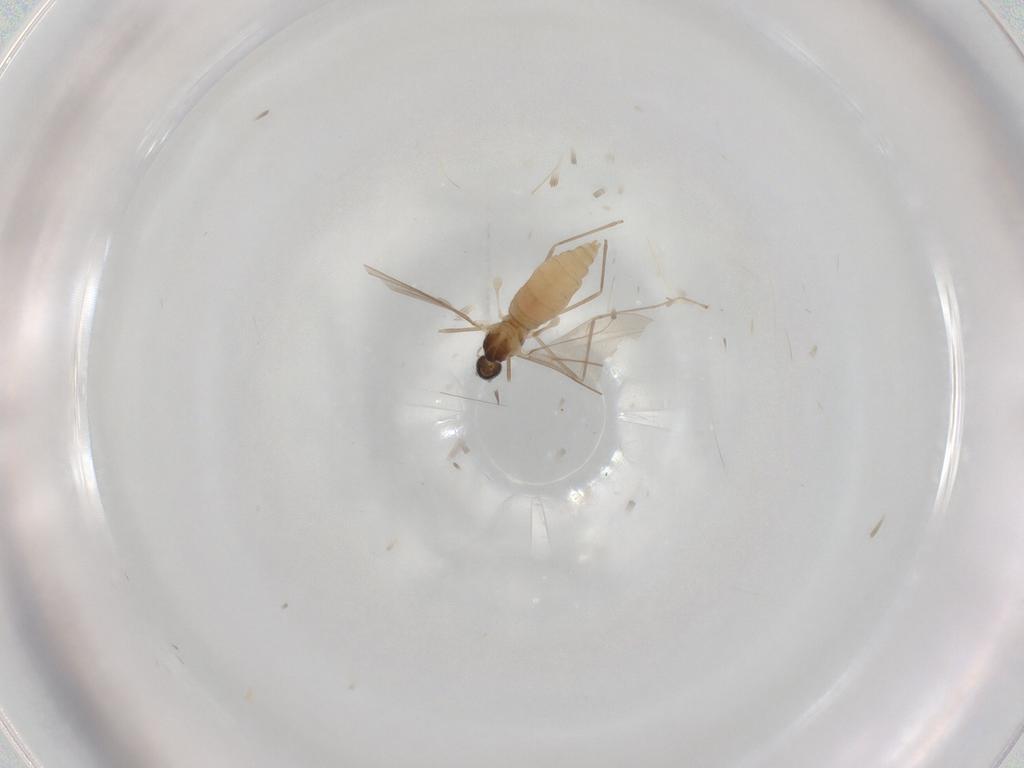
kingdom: Animalia
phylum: Arthropoda
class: Insecta
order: Diptera
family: Chironomidae
